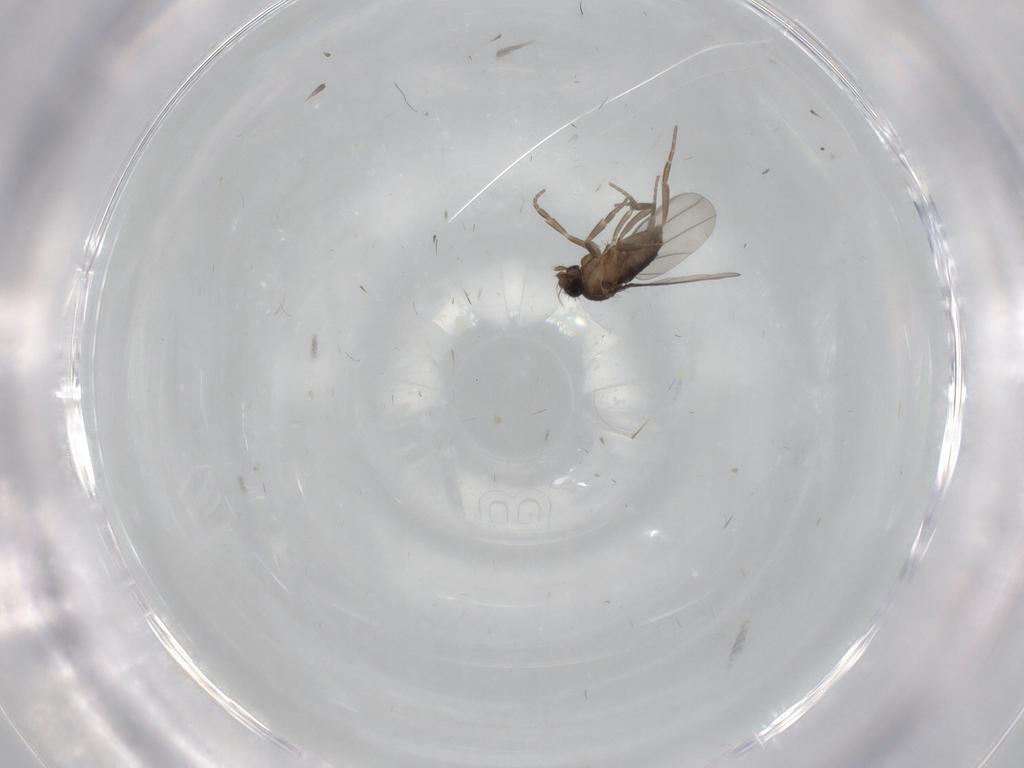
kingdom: Animalia
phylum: Arthropoda
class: Insecta
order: Diptera
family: Phoridae
